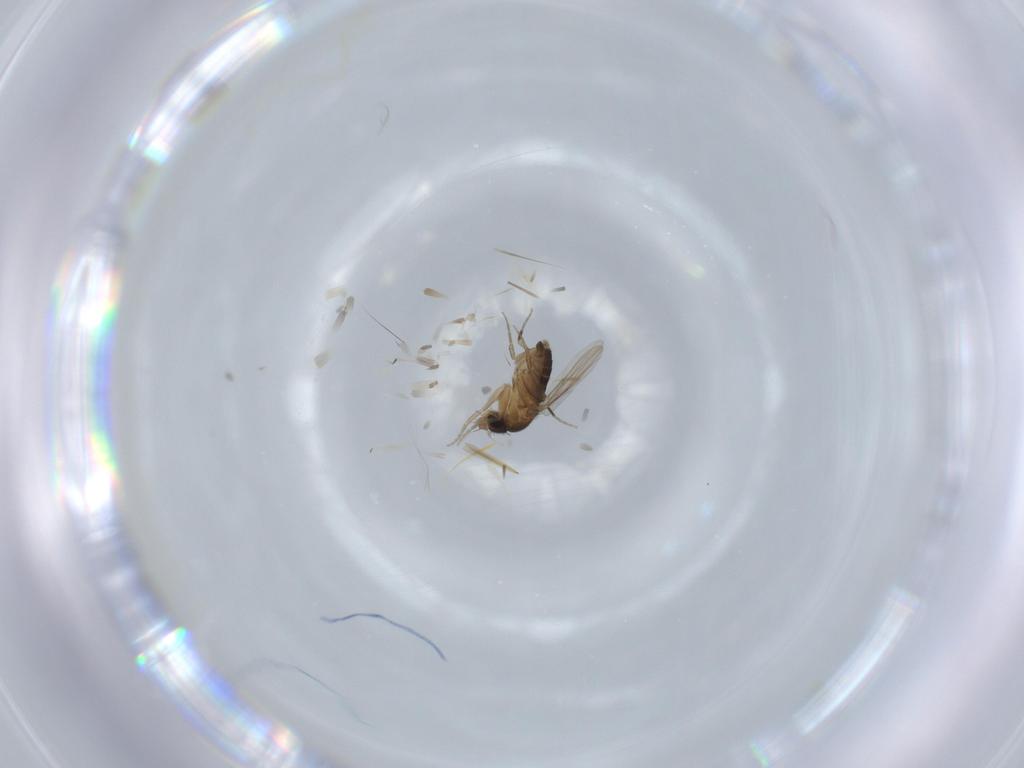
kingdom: Animalia
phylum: Arthropoda
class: Insecta
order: Diptera
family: Phoridae
